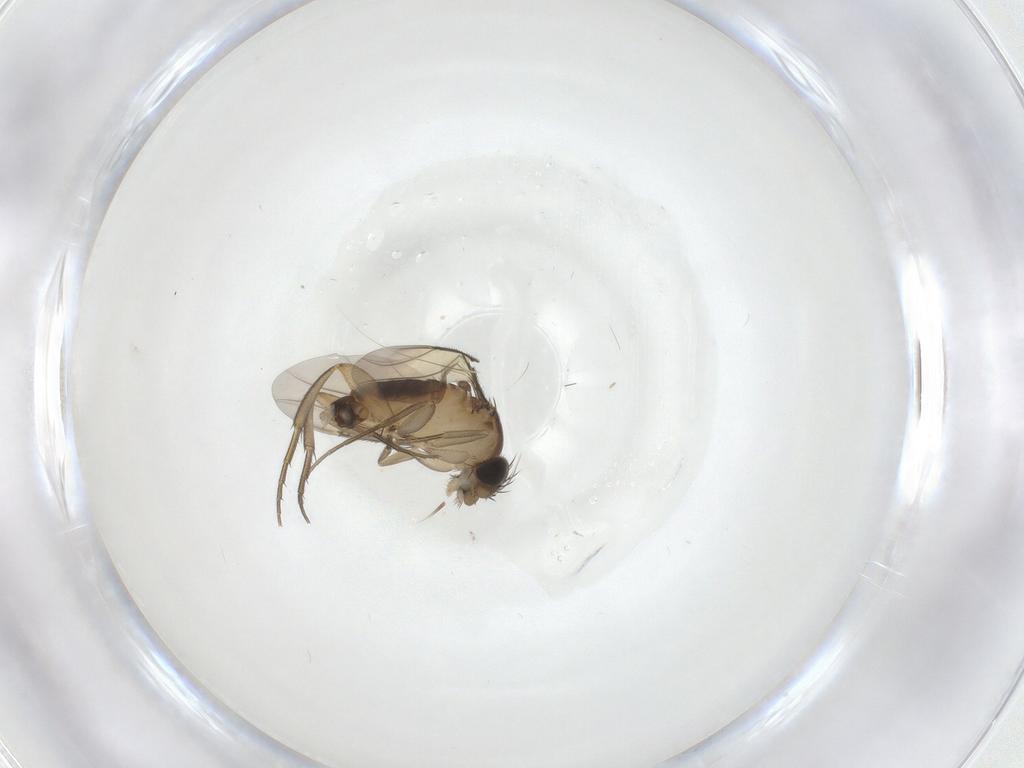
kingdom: Animalia
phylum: Arthropoda
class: Insecta
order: Diptera
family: Chironomidae
